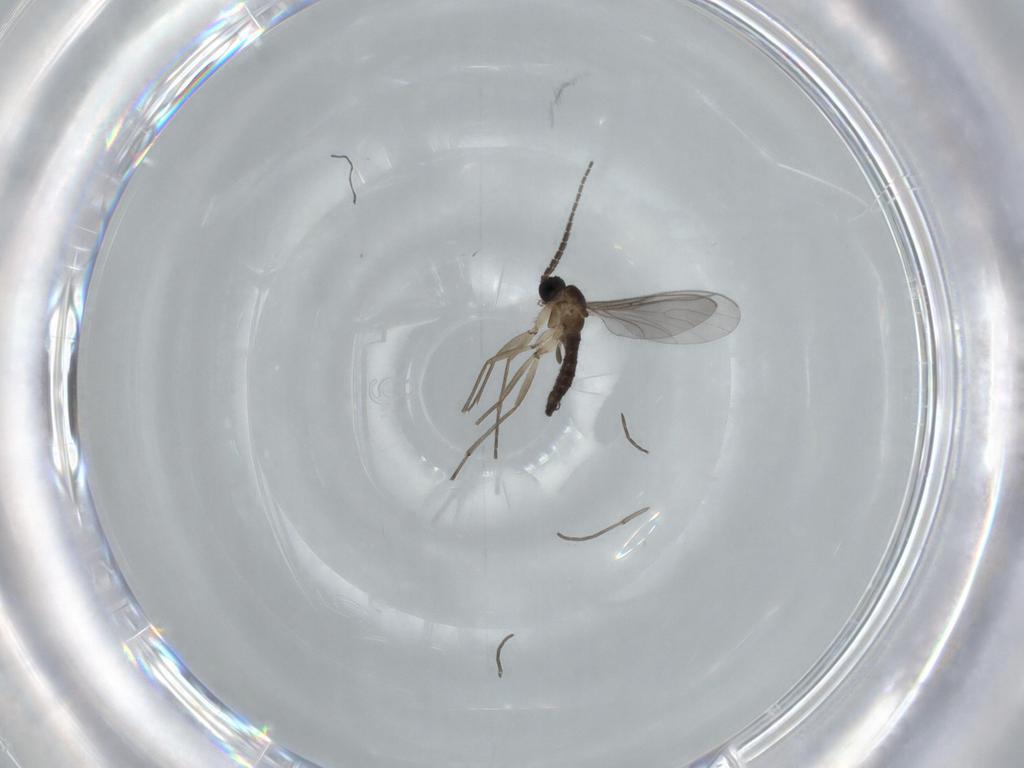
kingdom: Animalia
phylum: Arthropoda
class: Insecta
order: Diptera
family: Sciaridae
